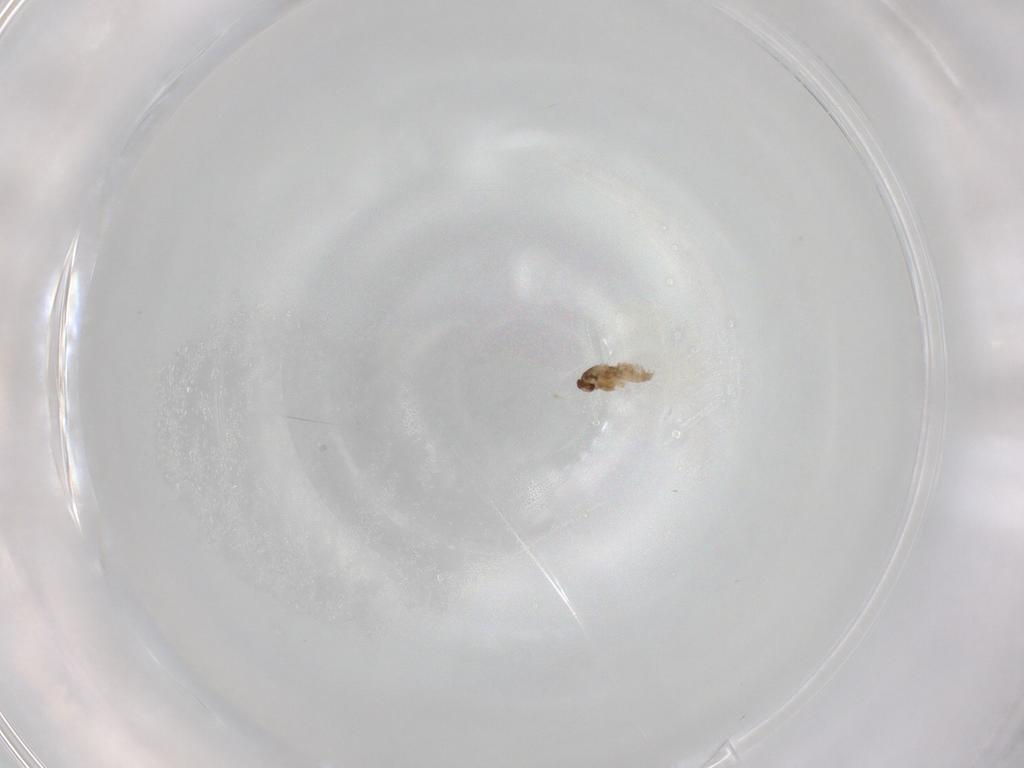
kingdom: Animalia
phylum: Arthropoda
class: Insecta
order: Diptera
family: Cecidomyiidae
